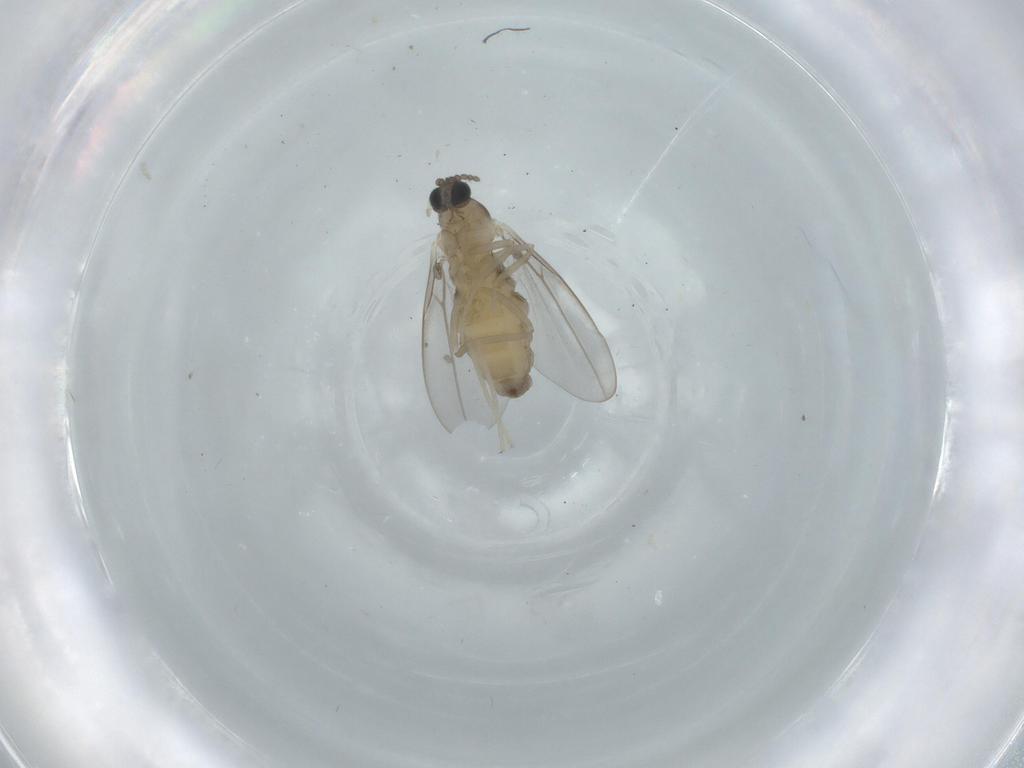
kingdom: Animalia
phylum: Arthropoda
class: Insecta
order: Diptera
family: Cecidomyiidae
